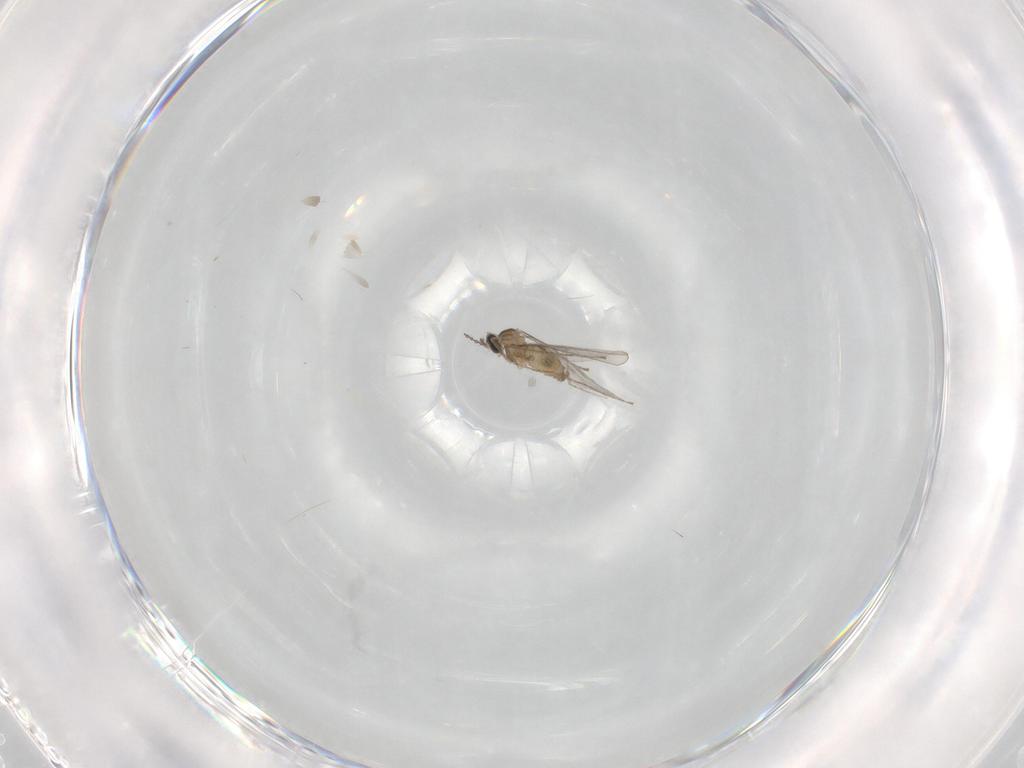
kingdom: Animalia
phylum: Arthropoda
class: Insecta
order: Diptera
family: Cecidomyiidae
